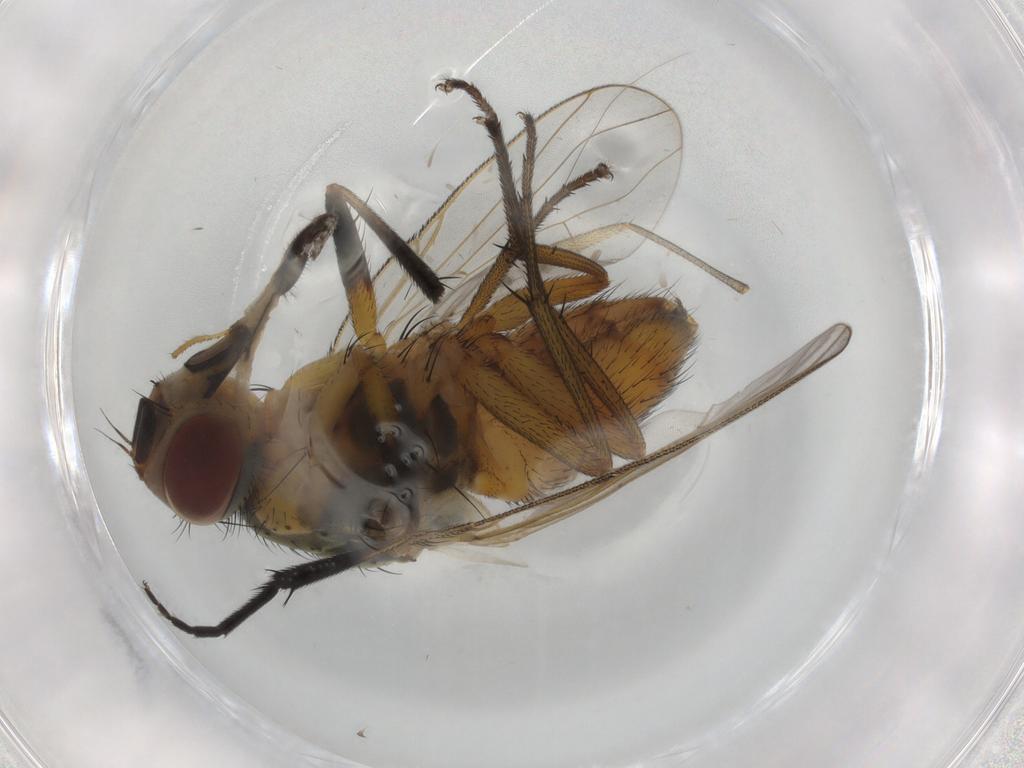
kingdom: Animalia
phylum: Arthropoda
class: Insecta
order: Diptera
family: Muscidae
